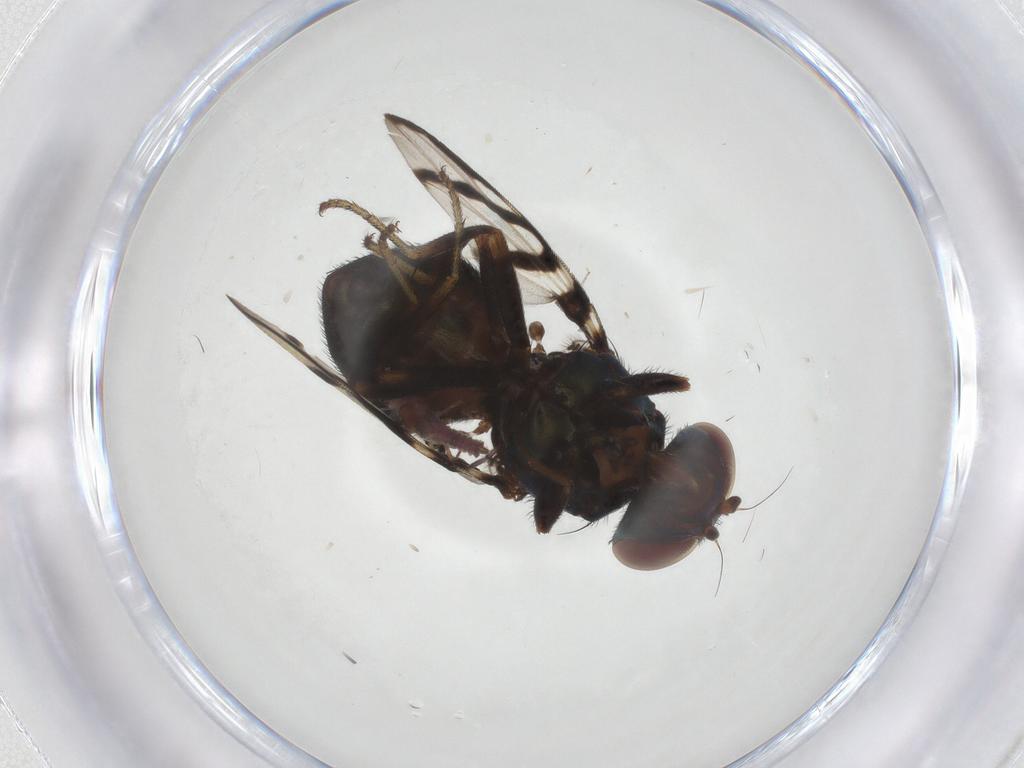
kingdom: Animalia
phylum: Arthropoda
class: Insecta
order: Diptera
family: Ulidiidae
